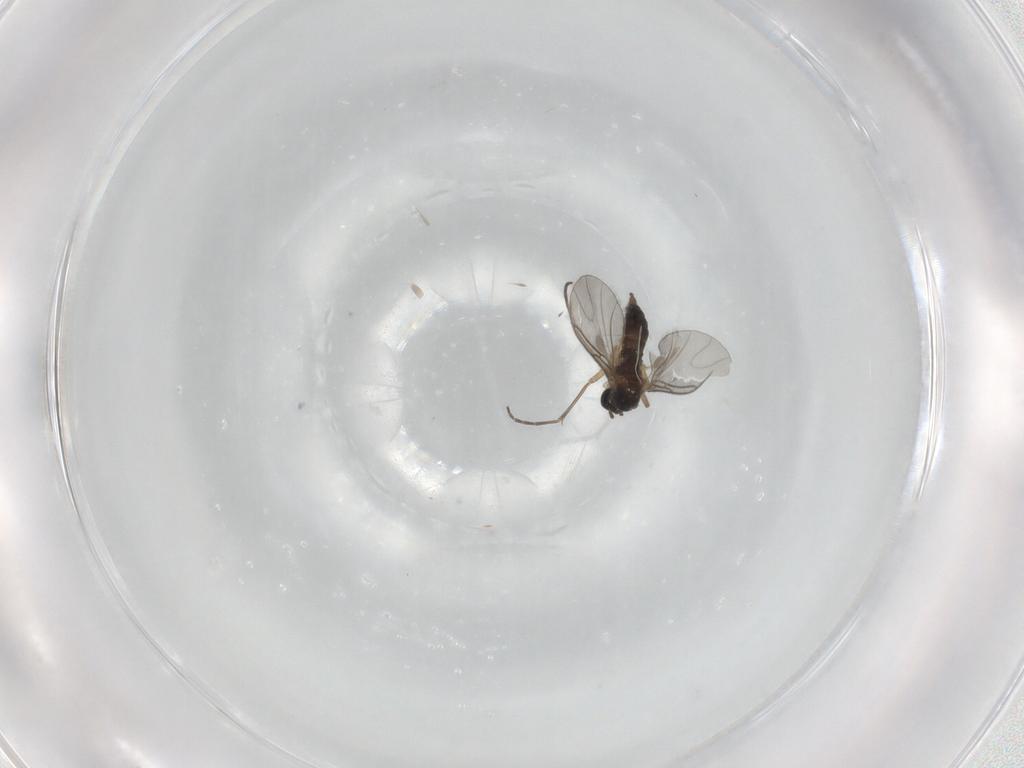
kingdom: Animalia
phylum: Arthropoda
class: Insecta
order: Diptera
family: Sciaridae
